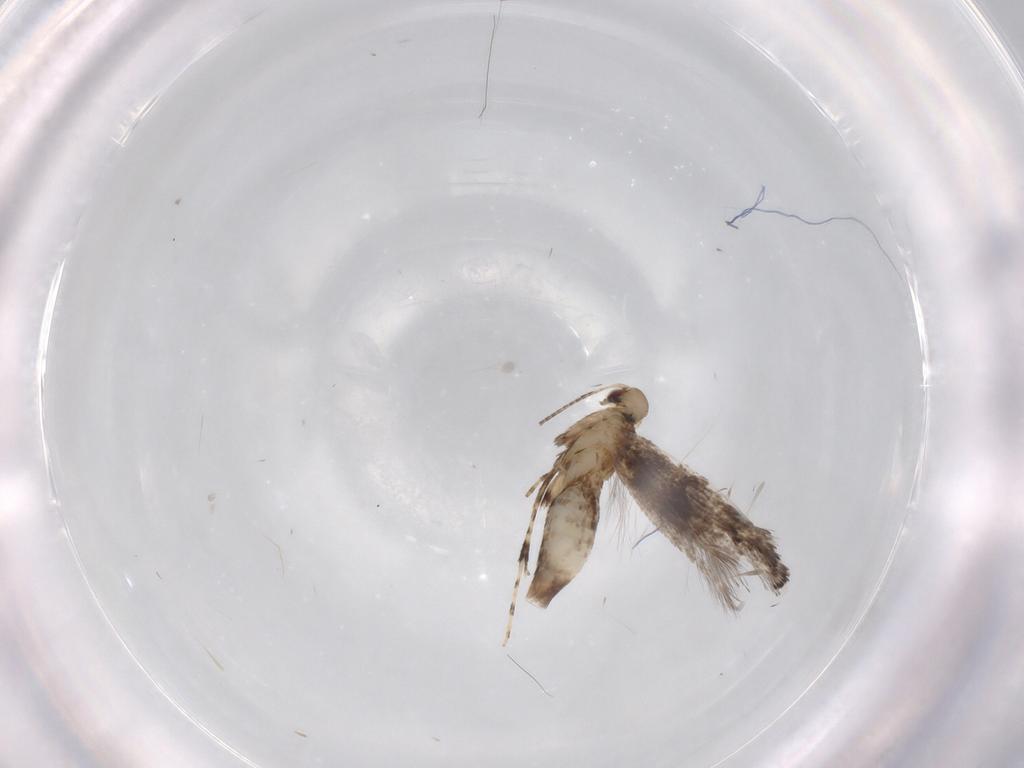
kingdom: Animalia
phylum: Arthropoda
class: Insecta
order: Lepidoptera
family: Gracillariidae
